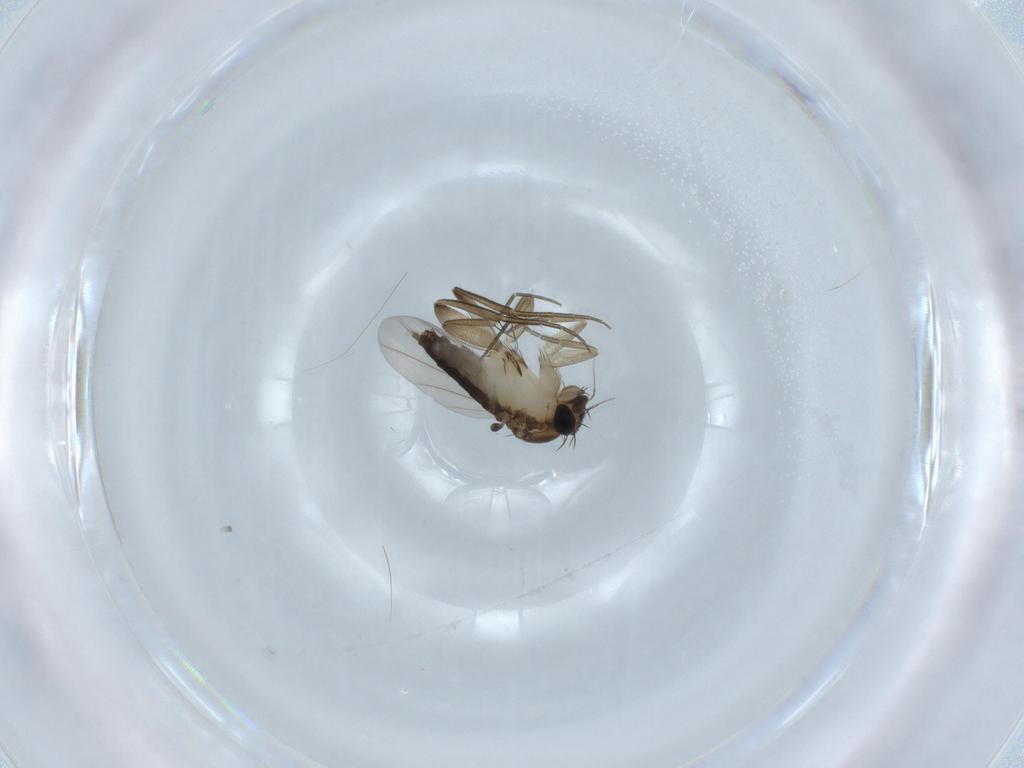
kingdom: Animalia
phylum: Arthropoda
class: Insecta
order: Diptera
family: Phoridae
